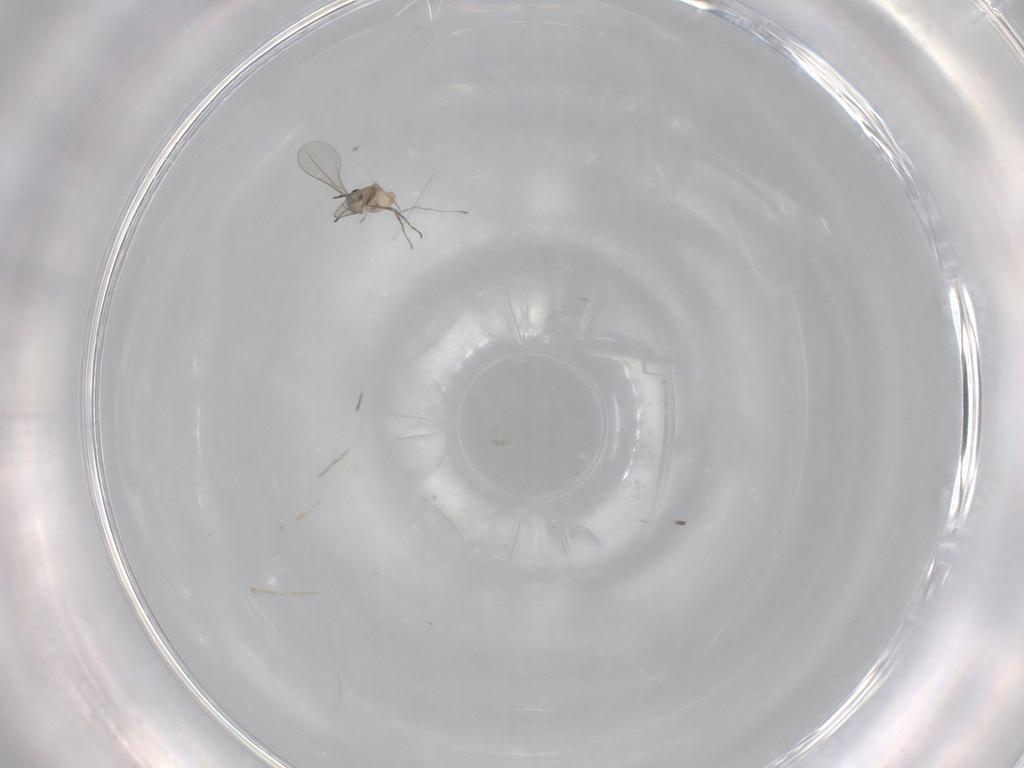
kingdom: Animalia
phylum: Arthropoda
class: Insecta
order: Diptera
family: Cecidomyiidae
